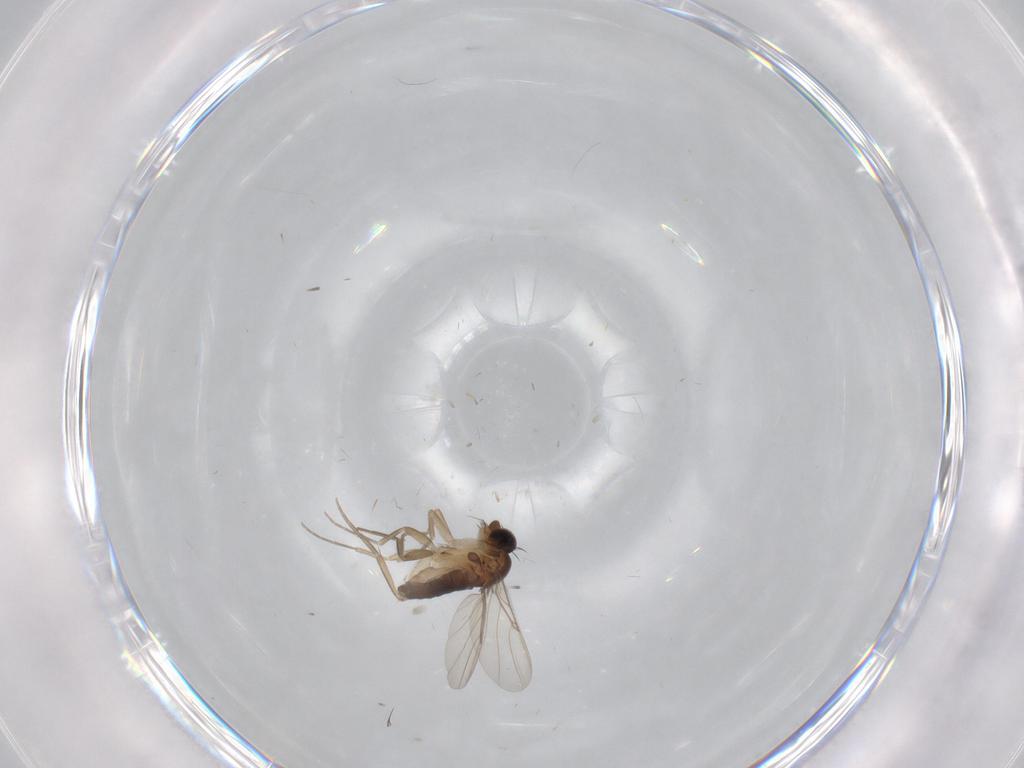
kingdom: Animalia
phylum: Arthropoda
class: Insecta
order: Diptera
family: Phoridae
